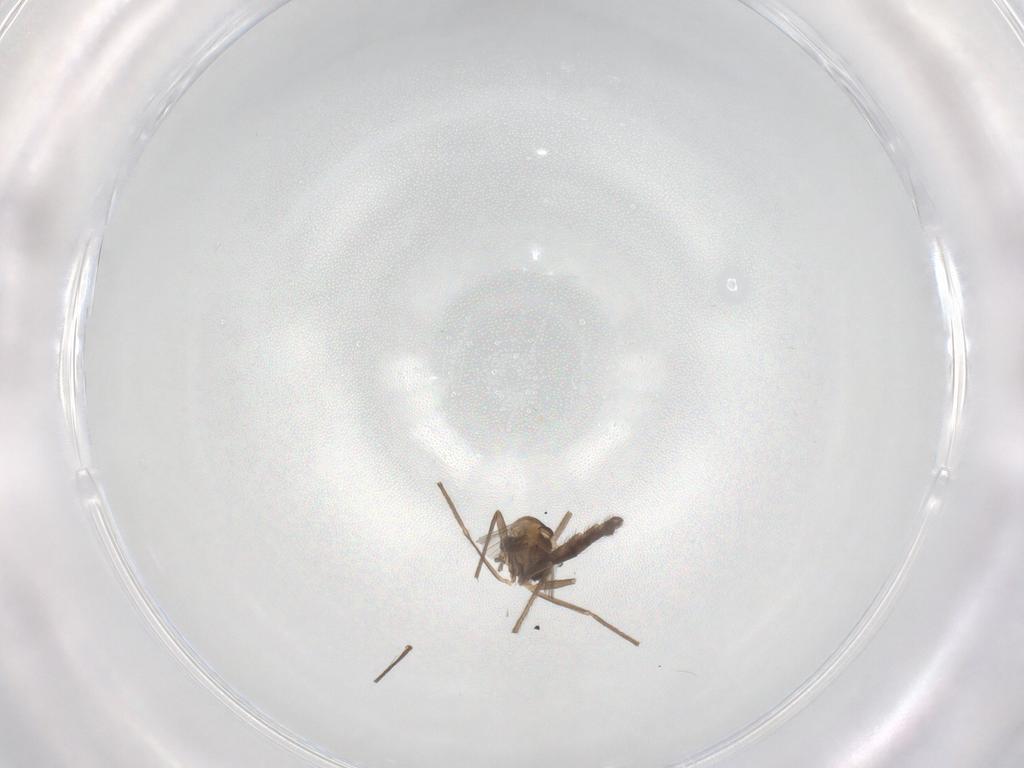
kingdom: Animalia
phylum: Arthropoda
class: Insecta
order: Diptera
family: Chironomidae
